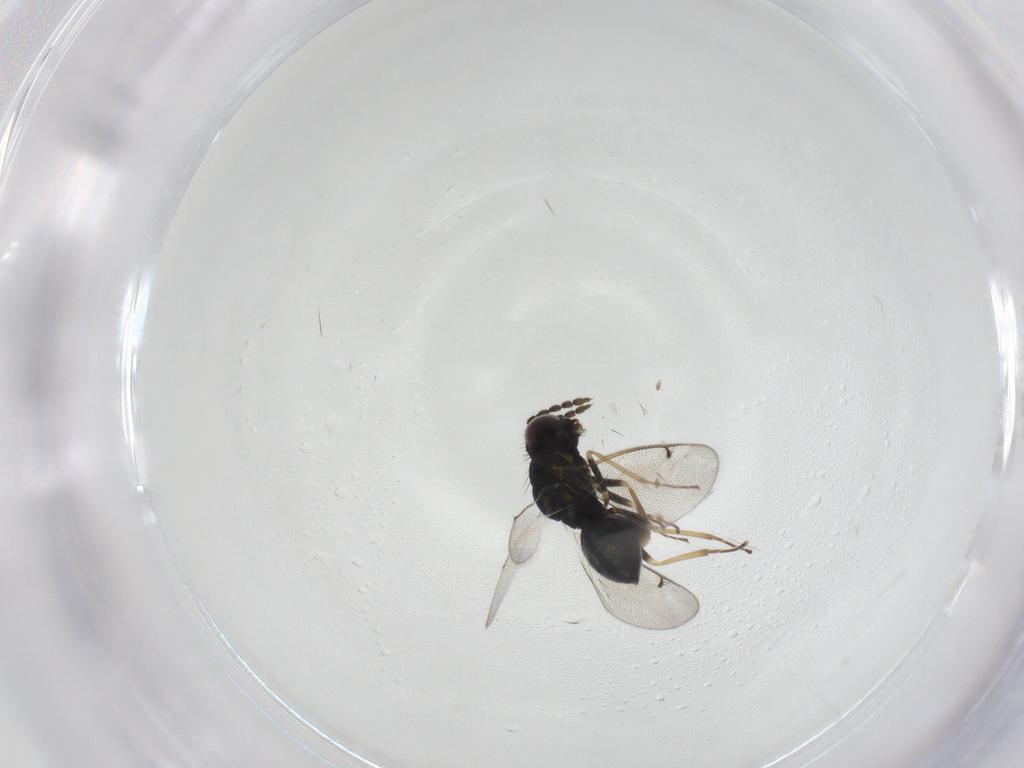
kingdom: Animalia
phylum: Arthropoda
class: Insecta
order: Hymenoptera
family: Eulophidae
